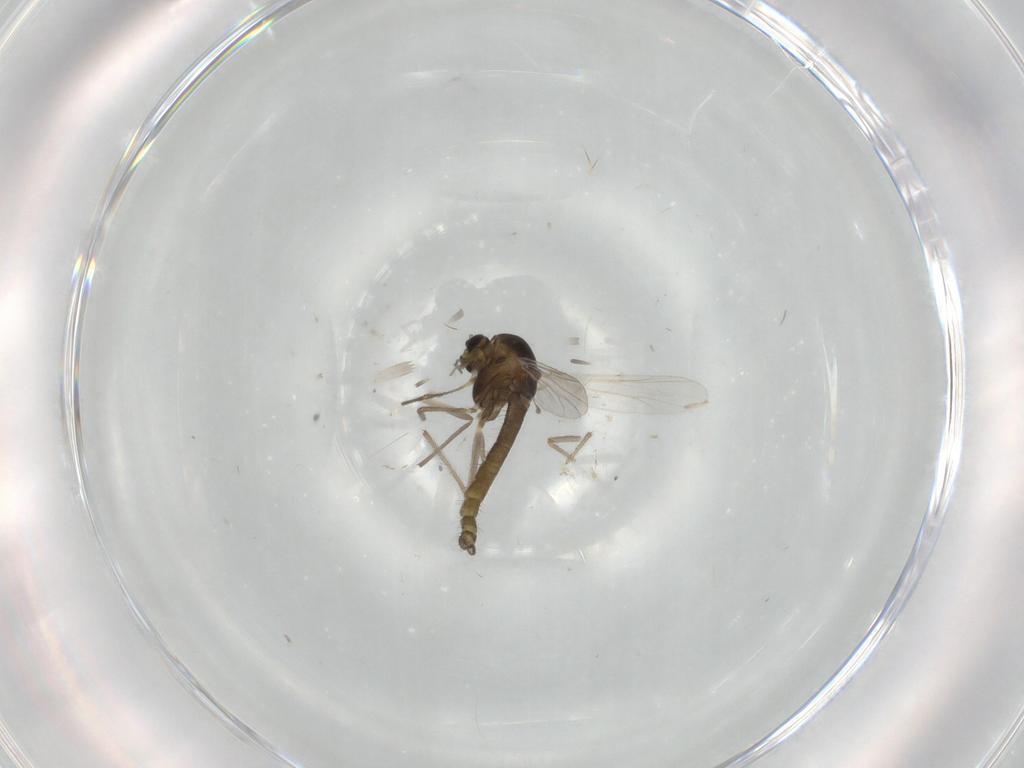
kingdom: Animalia
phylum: Arthropoda
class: Insecta
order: Diptera
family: Chironomidae
